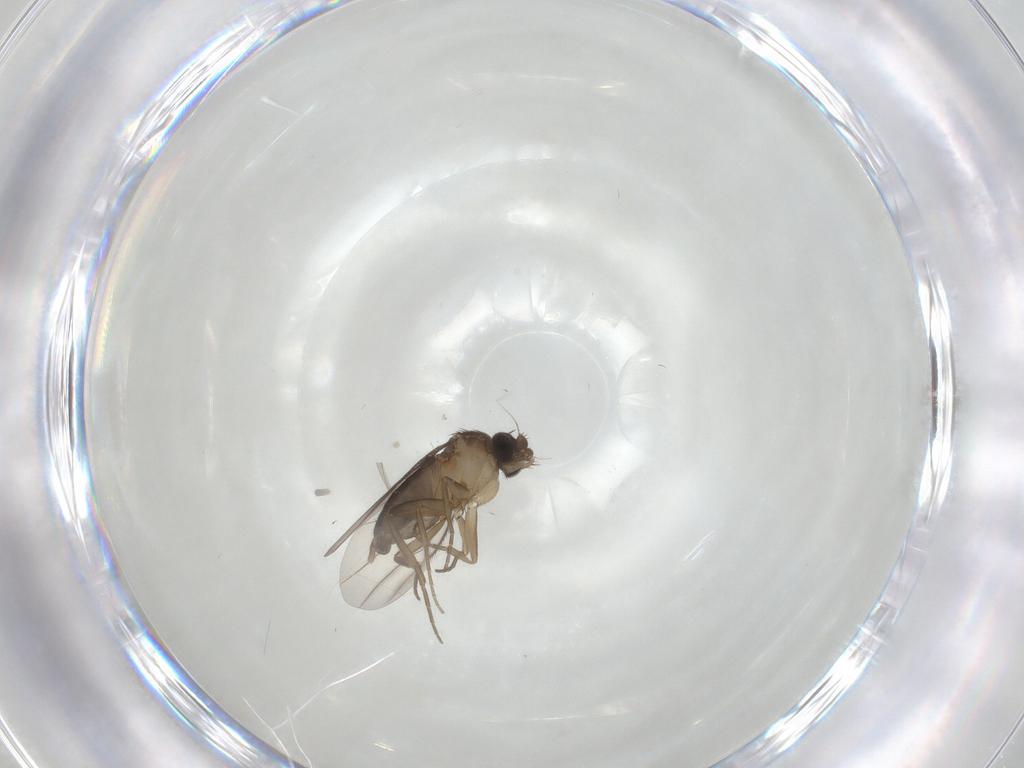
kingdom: Animalia
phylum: Arthropoda
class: Insecta
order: Diptera
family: Phoridae
